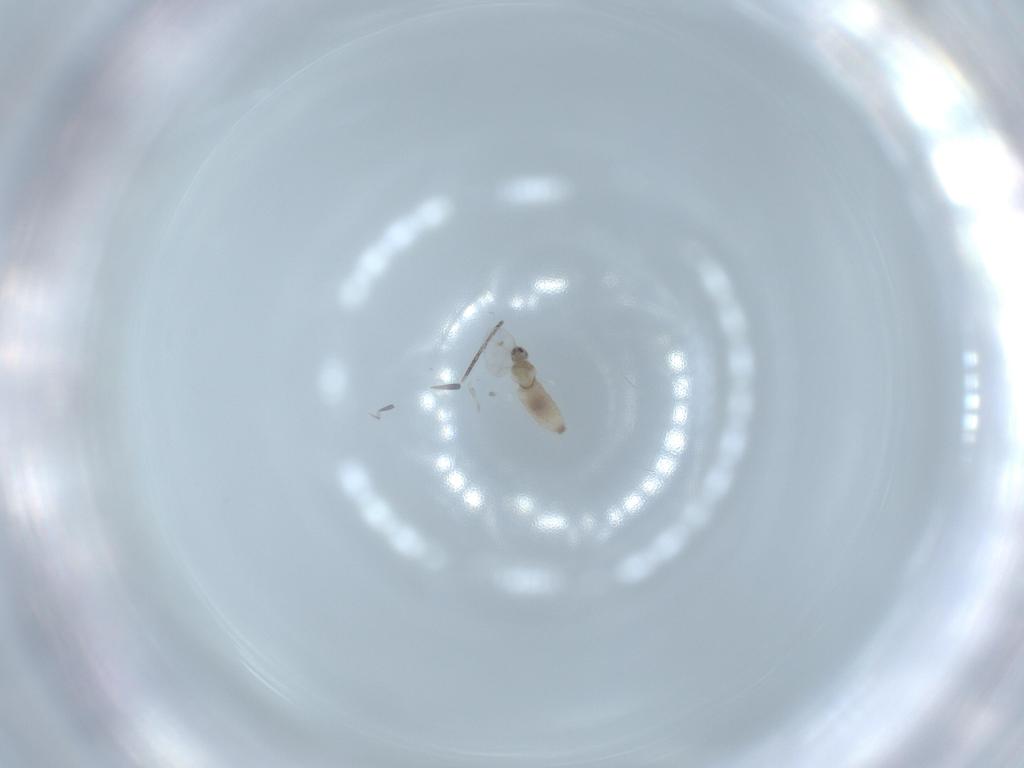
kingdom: Animalia
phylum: Arthropoda
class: Insecta
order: Diptera
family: Cecidomyiidae
